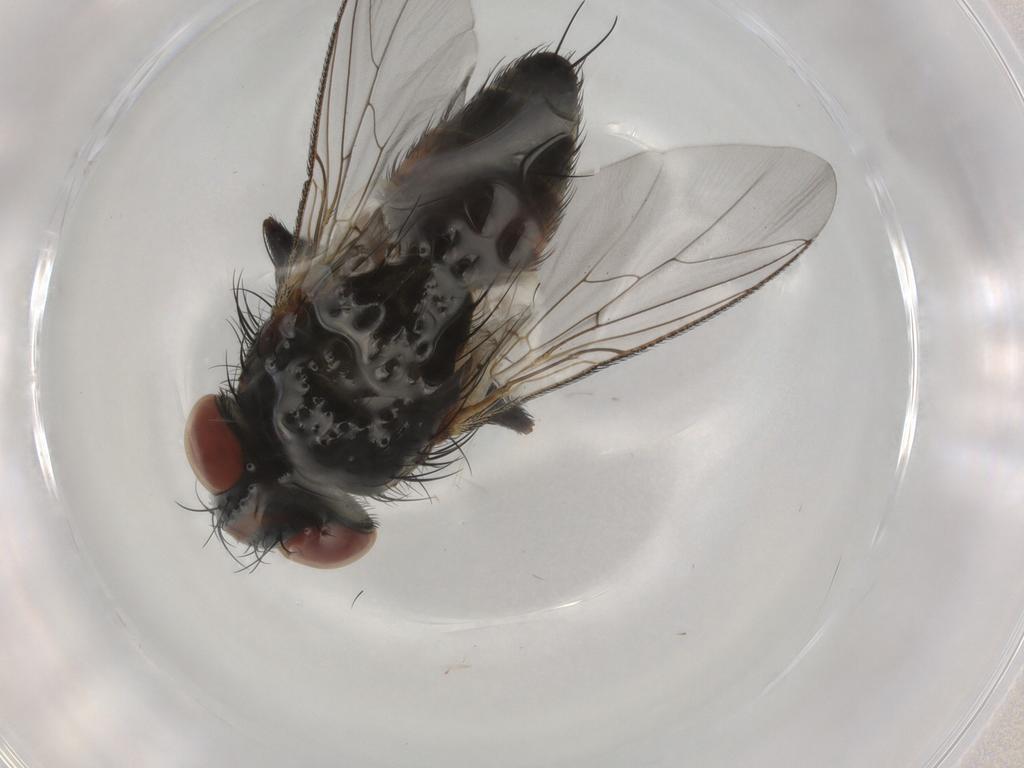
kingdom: Animalia
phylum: Arthropoda
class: Insecta
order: Diptera
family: Sarcophagidae
